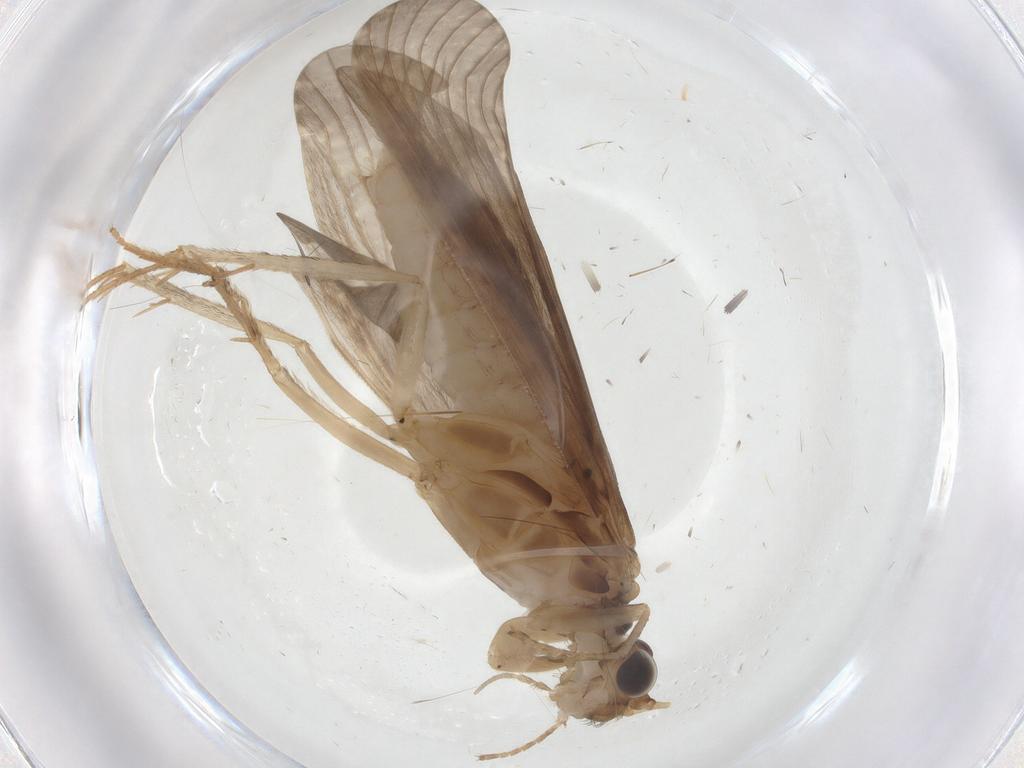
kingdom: Animalia
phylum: Arthropoda
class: Insecta
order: Trichoptera
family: Hydropsychidae
